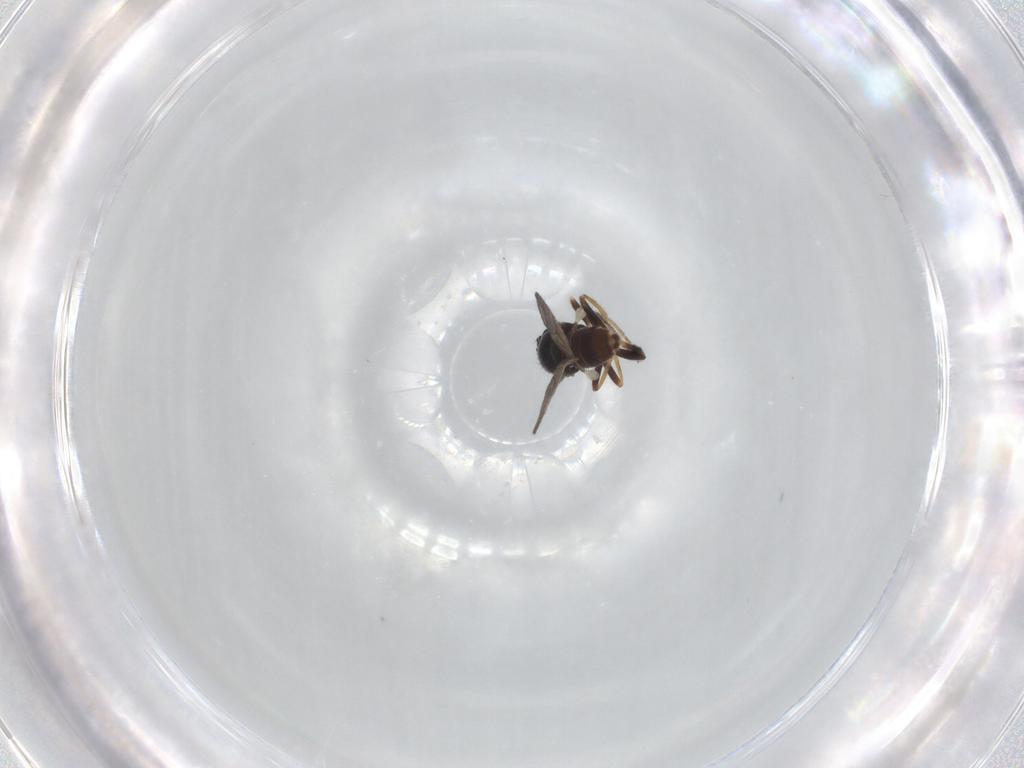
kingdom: Animalia
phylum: Arthropoda
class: Insecta
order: Diptera
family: Chloropidae
